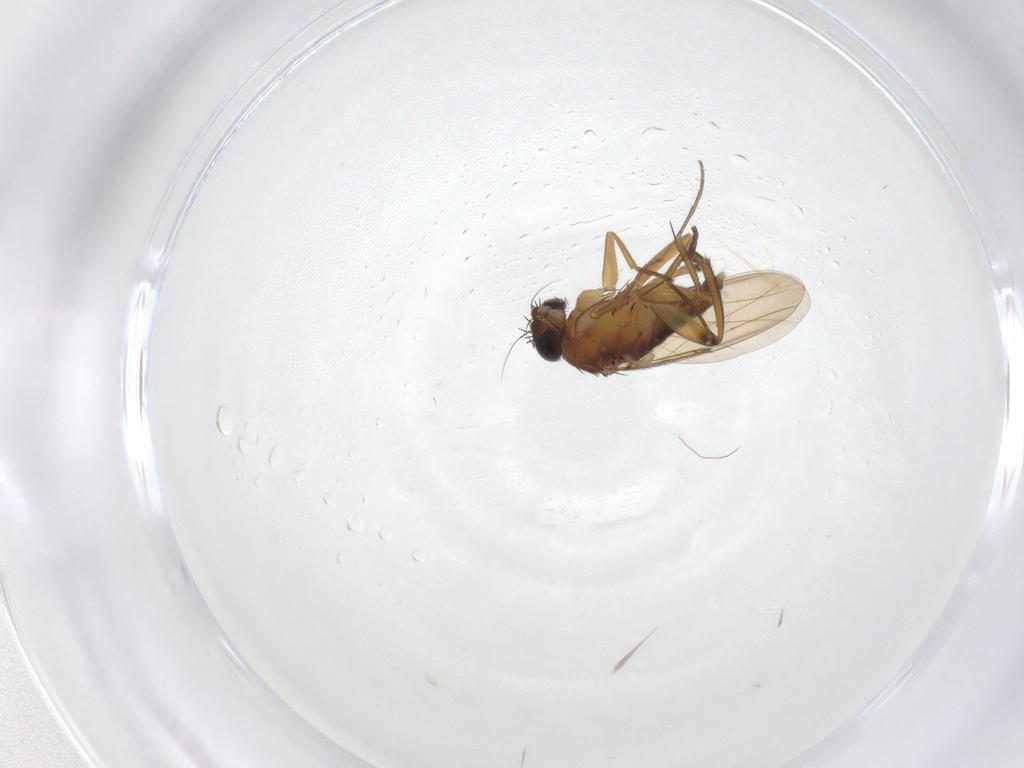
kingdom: Animalia
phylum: Arthropoda
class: Insecta
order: Diptera
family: Phoridae
